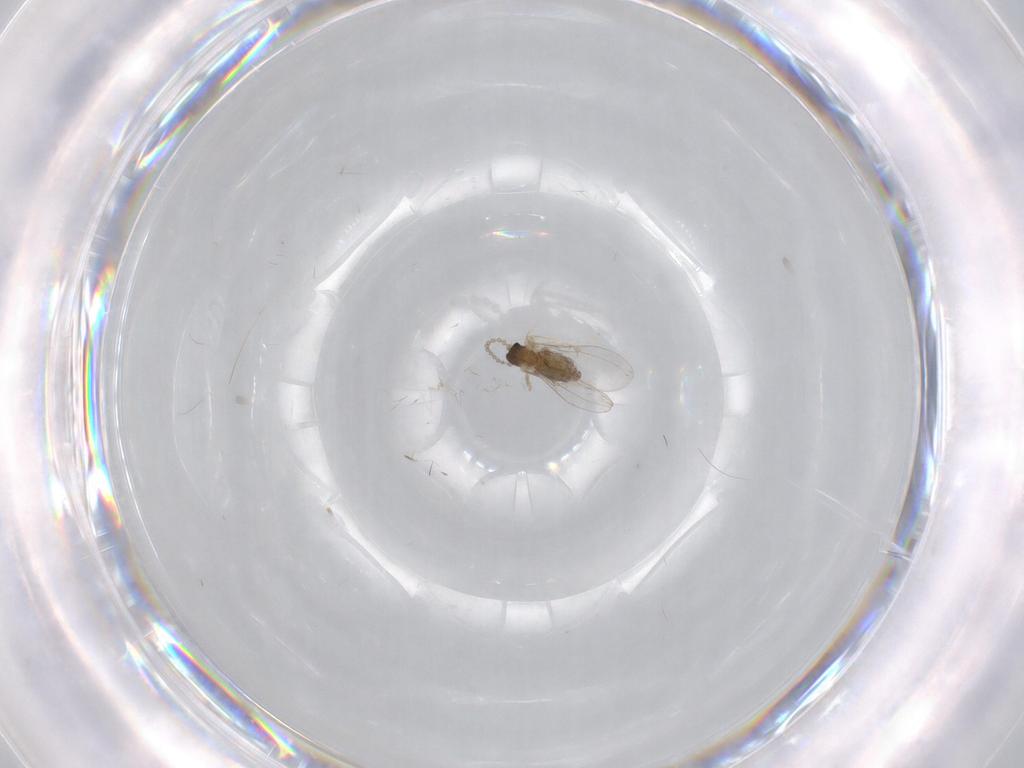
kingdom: Animalia
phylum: Arthropoda
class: Insecta
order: Diptera
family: Cecidomyiidae
